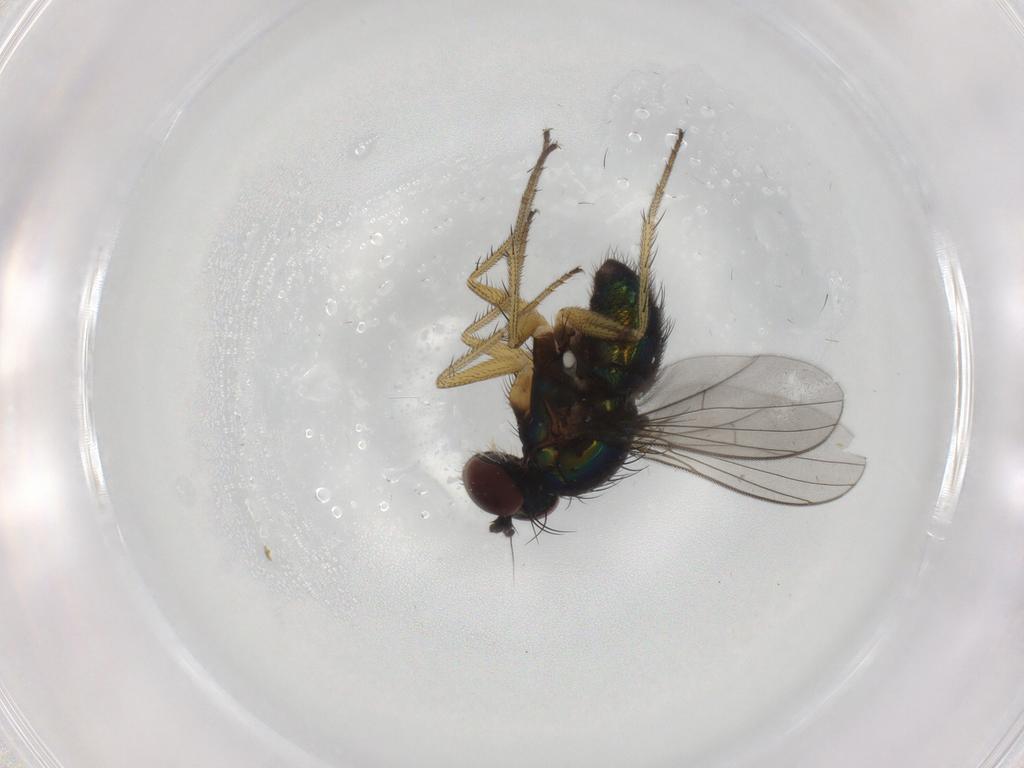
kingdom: Animalia
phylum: Arthropoda
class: Insecta
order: Diptera
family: Dolichopodidae
